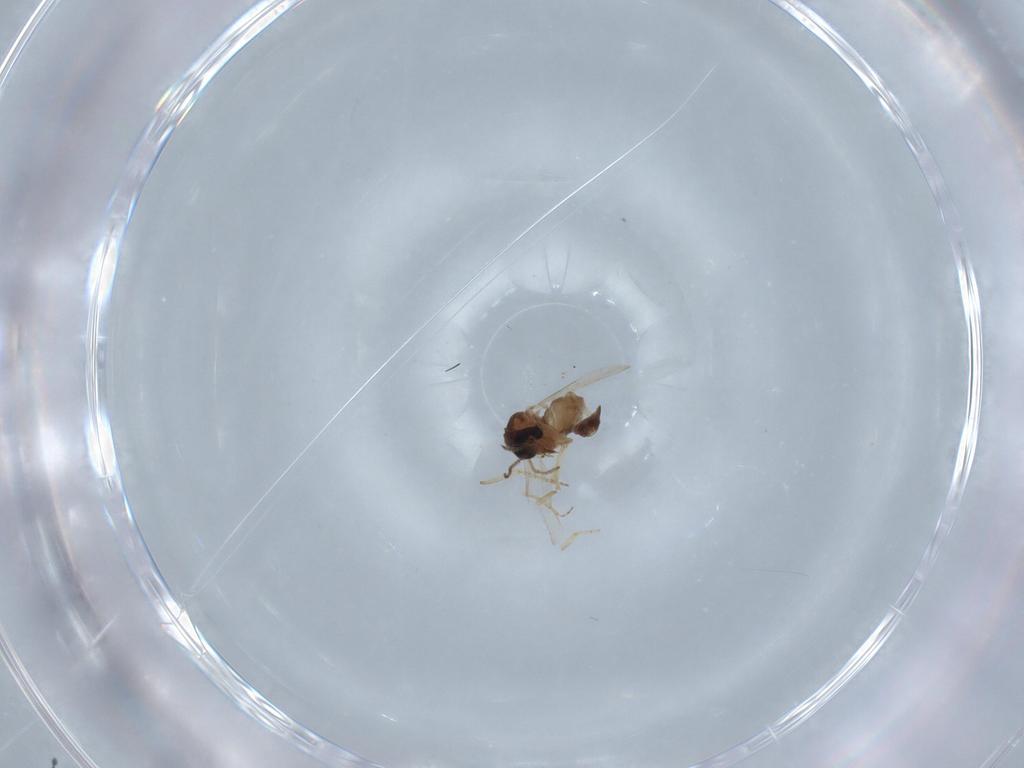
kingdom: Animalia
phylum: Arthropoda
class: Insecta
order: Diptera
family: Ceratopogonidae
